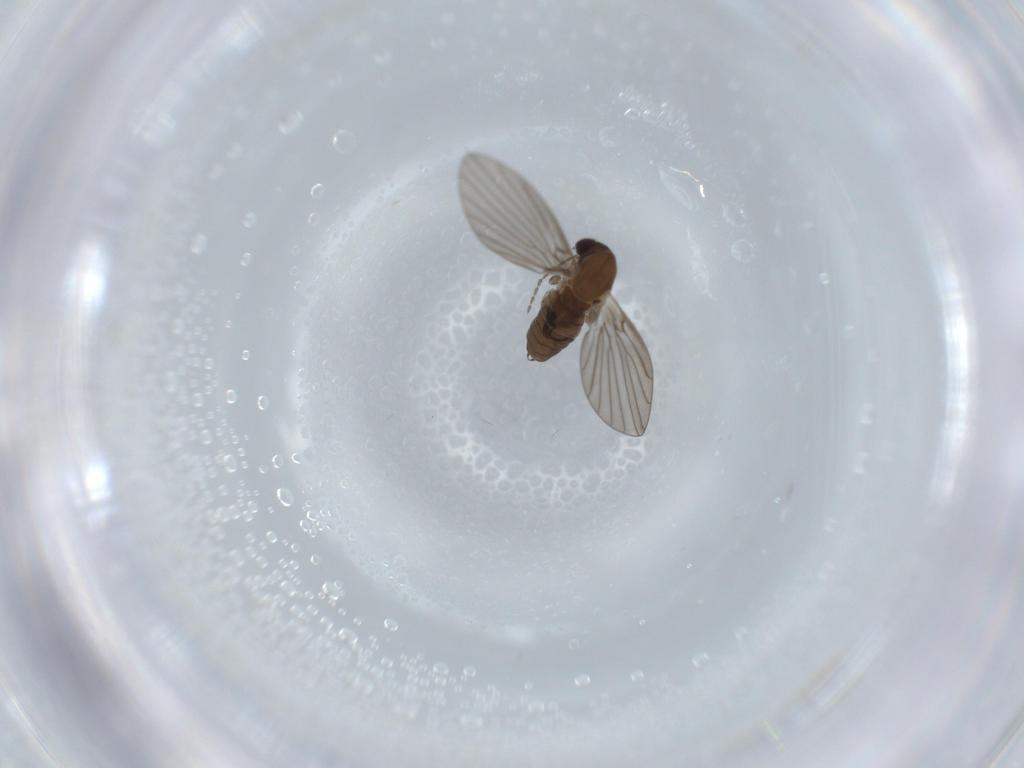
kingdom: Animalia
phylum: Arthropoda
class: Insecta
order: Diptera
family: Psychodidae
